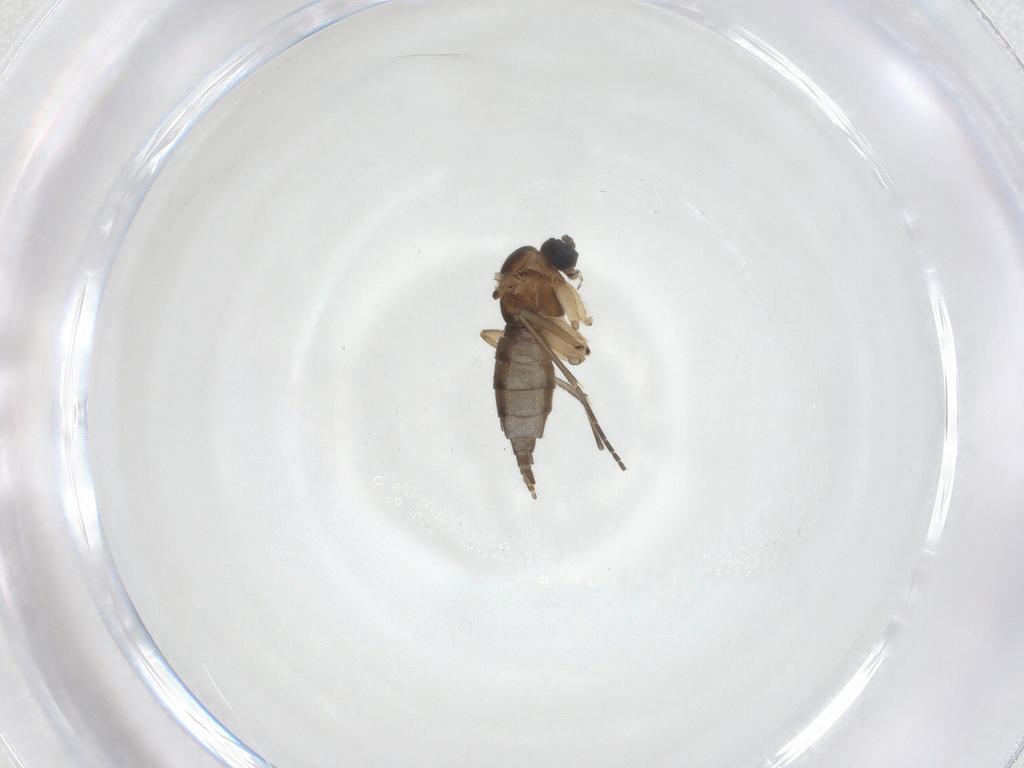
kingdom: Animalia
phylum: Arthropoda
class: Insecta
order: Diptera
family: Sciaridae
